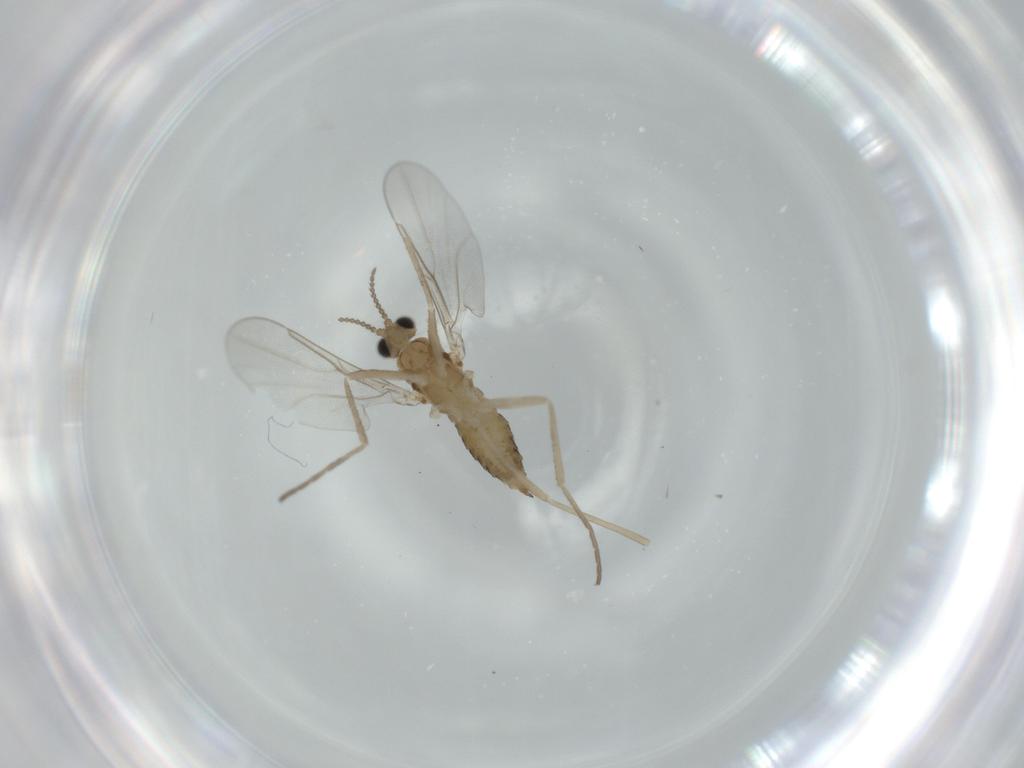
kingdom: Animalia
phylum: Arthropoda
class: Insecta
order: Diptera
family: Cecidomyiidae
